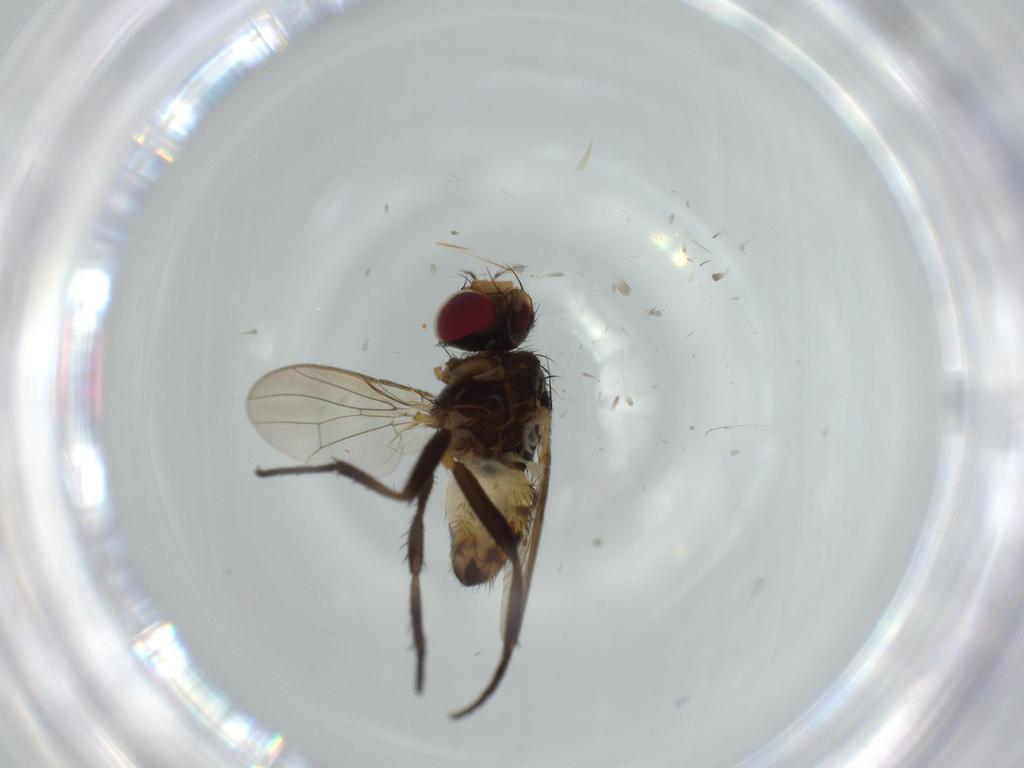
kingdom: Animalia
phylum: Arthropoda
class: Insecta
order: Diptera
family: Anthomyiidae
